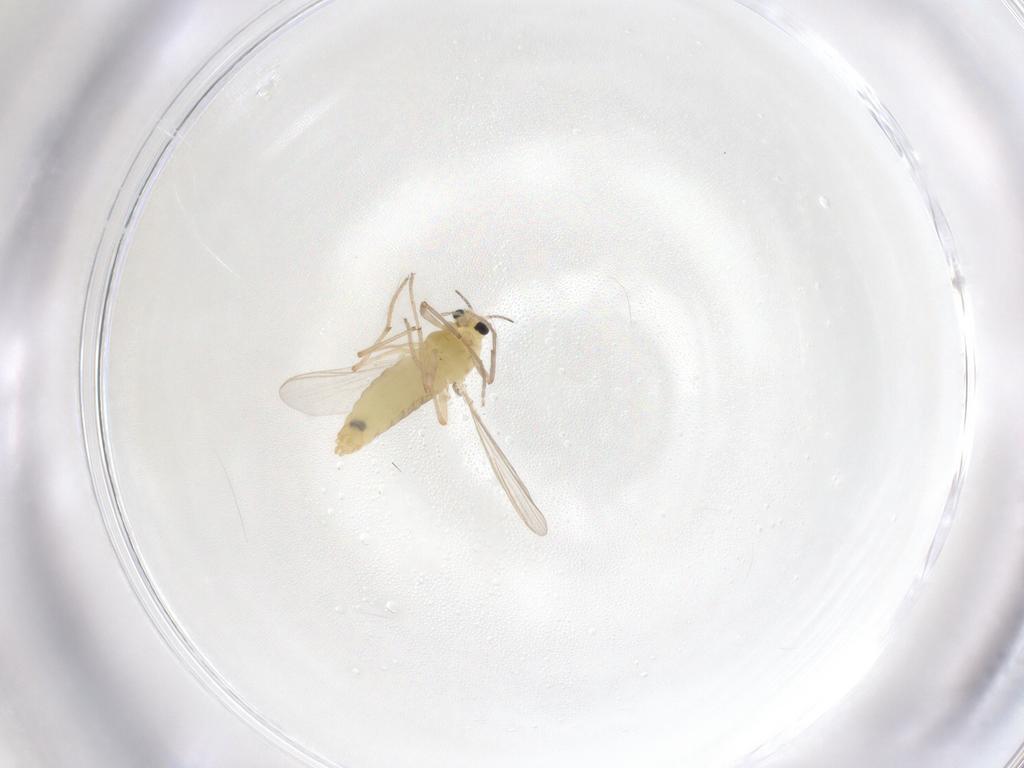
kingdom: Animalia
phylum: Arthropoda
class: Insecta
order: Diptera
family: Chironomidae
